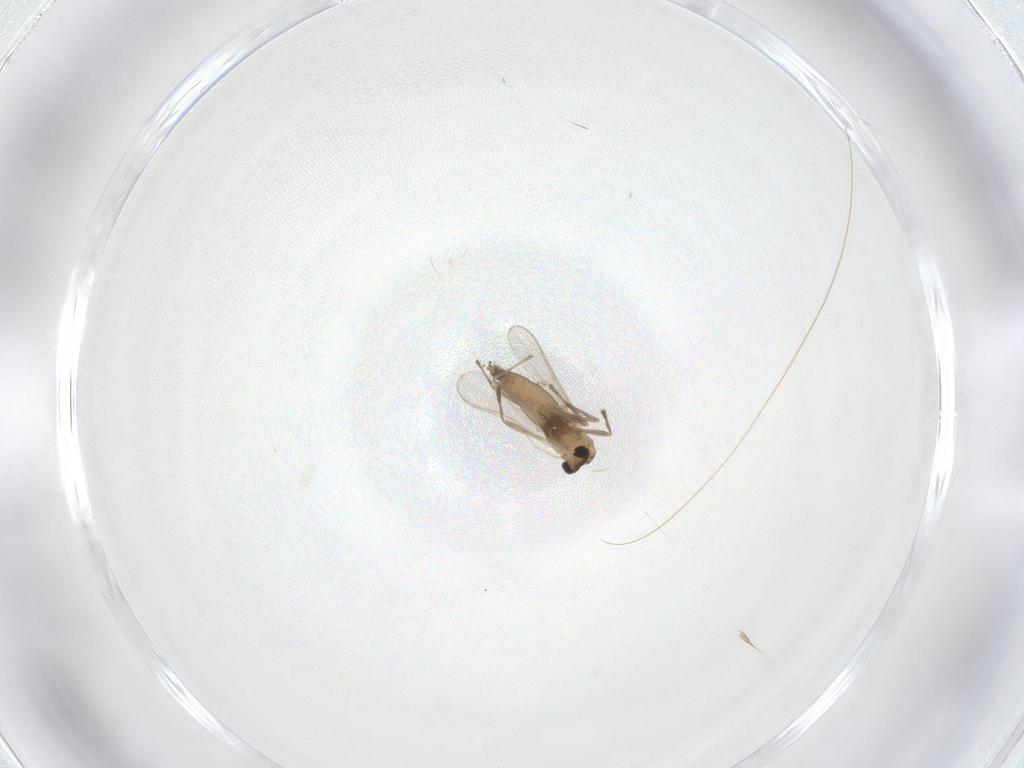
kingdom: Animalia
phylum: Arthropoda
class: Insecta
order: Diptera
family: Chironomidae
